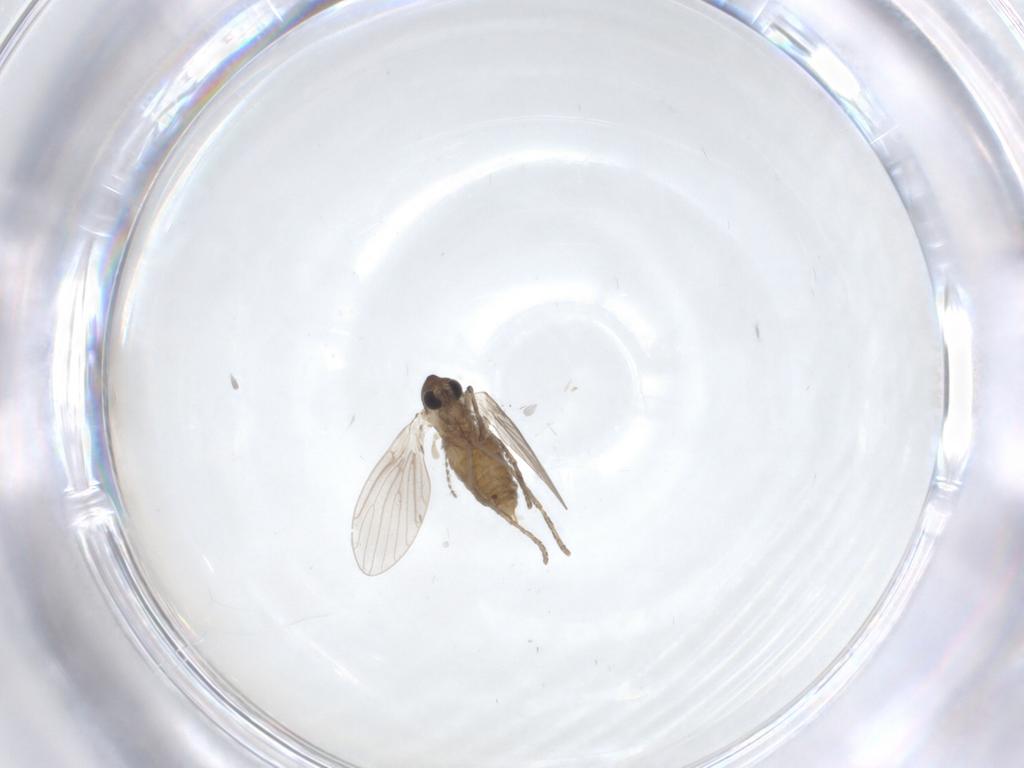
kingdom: Animalia
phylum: Arthropoda
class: Insecta
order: Diptera
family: Psychodidae
